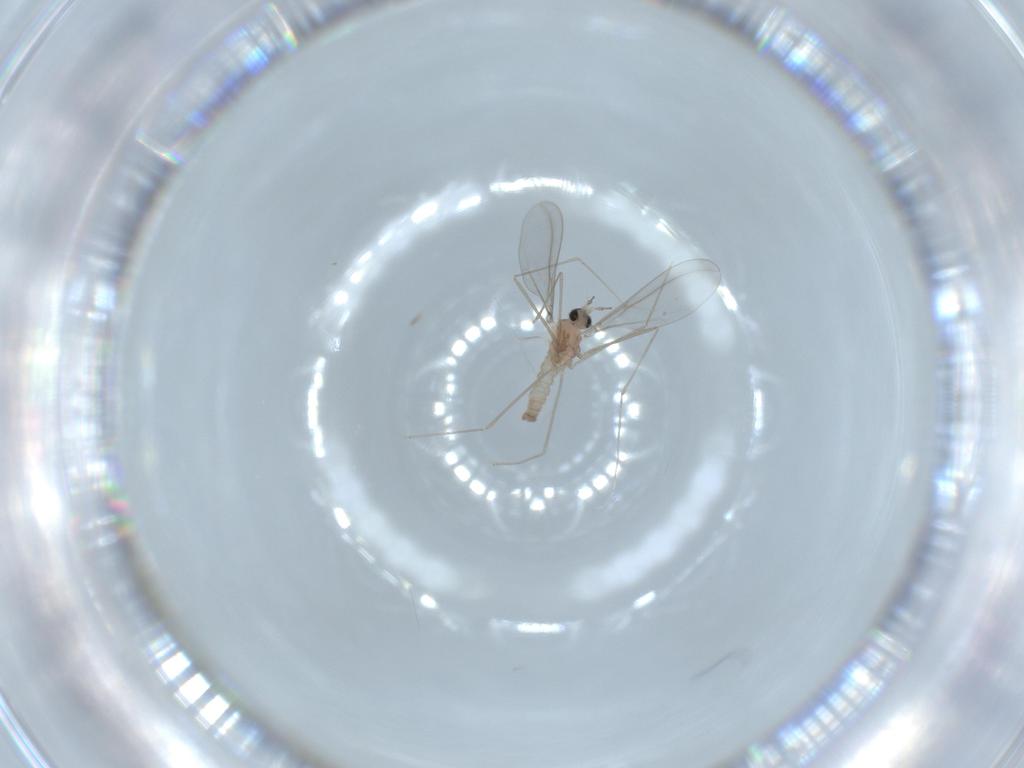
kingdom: Animalia
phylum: Arthropoda
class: Insecta
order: Diptera
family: Cecidomyiidae
